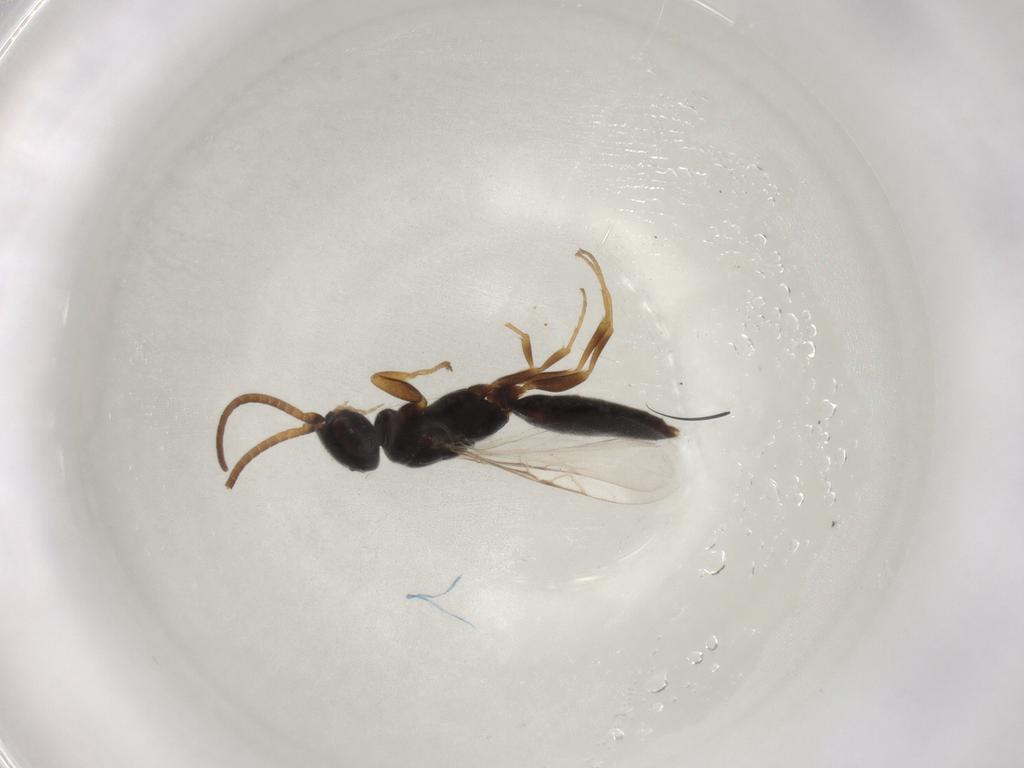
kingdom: Animalia
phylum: Arthropoda
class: Insecta
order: Hymenoptera
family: Sclerogibbidae
